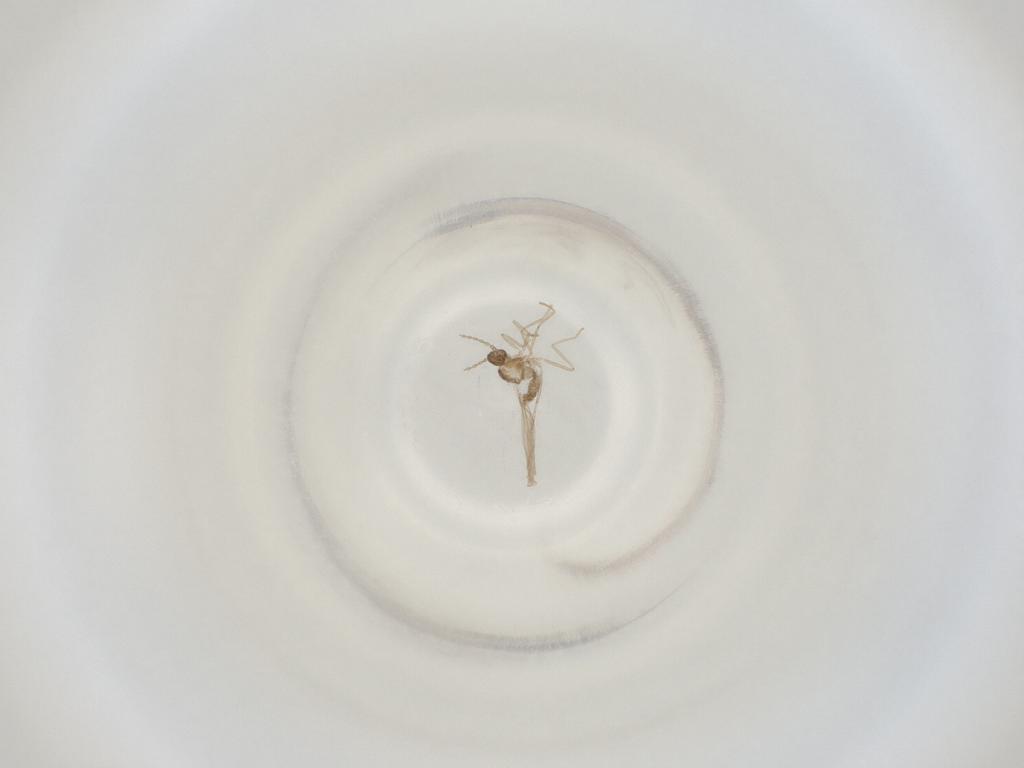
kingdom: Animalia
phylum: Arthropoda
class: Insecta
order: Diptera
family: Cecidomyiidae
